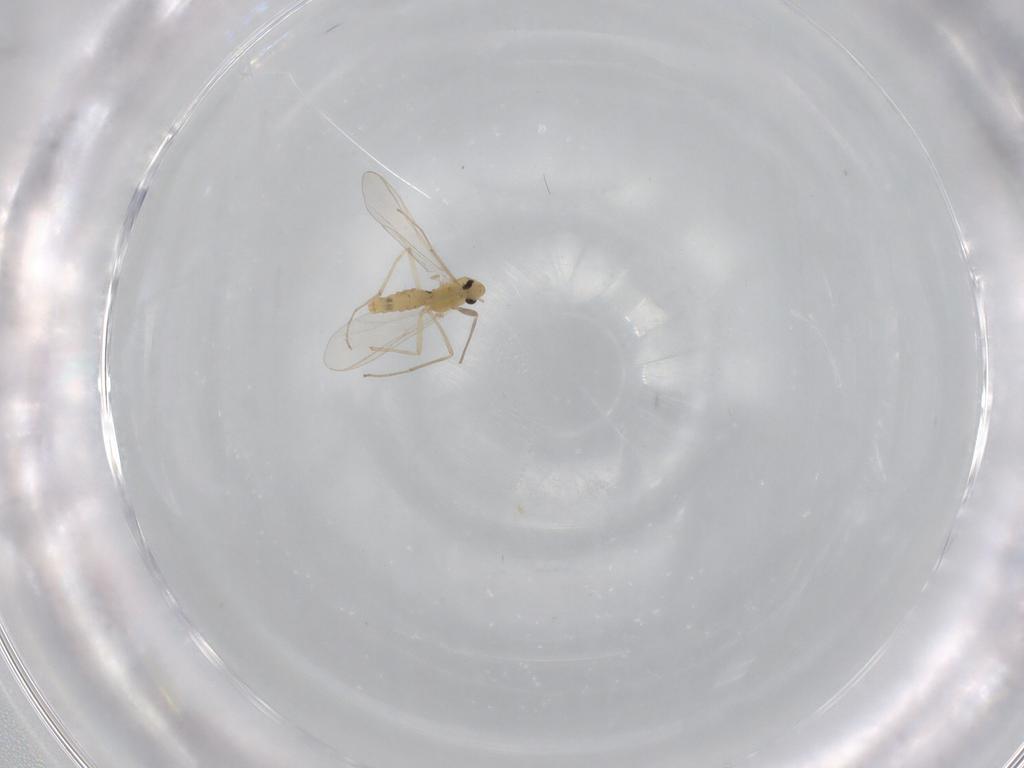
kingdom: Animalia
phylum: Arthropoda
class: Insecta
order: Diptera
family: Chironomidae
